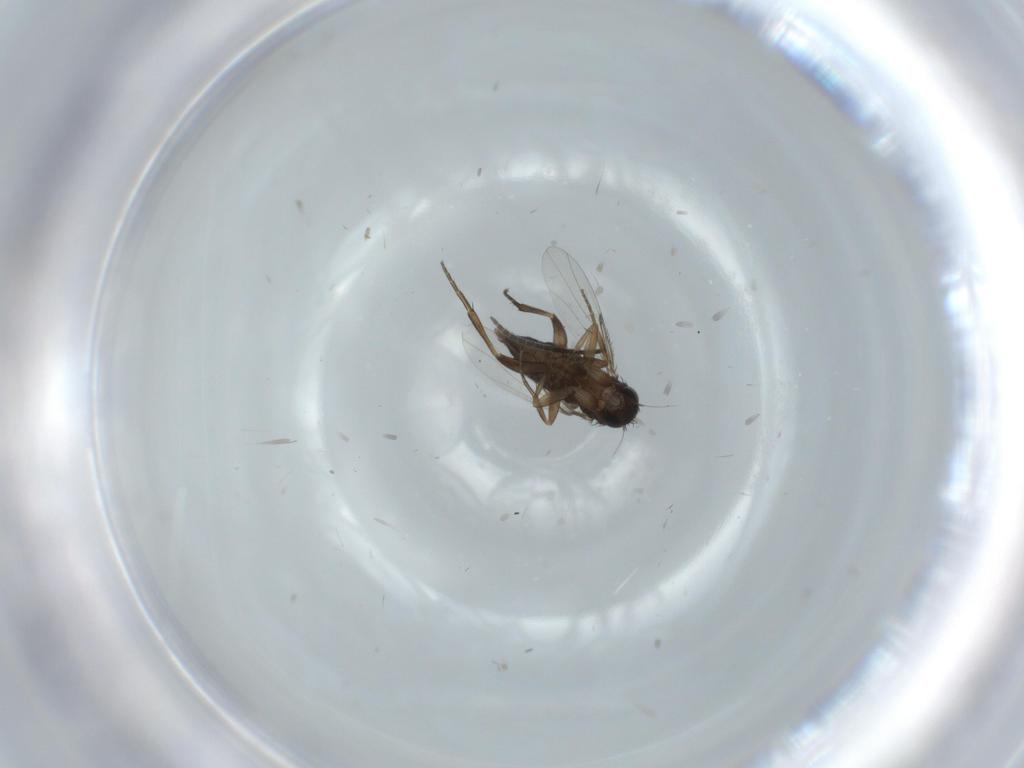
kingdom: Animalia
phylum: Arthropoda
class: Insecta
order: Diptera
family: Phoridae
